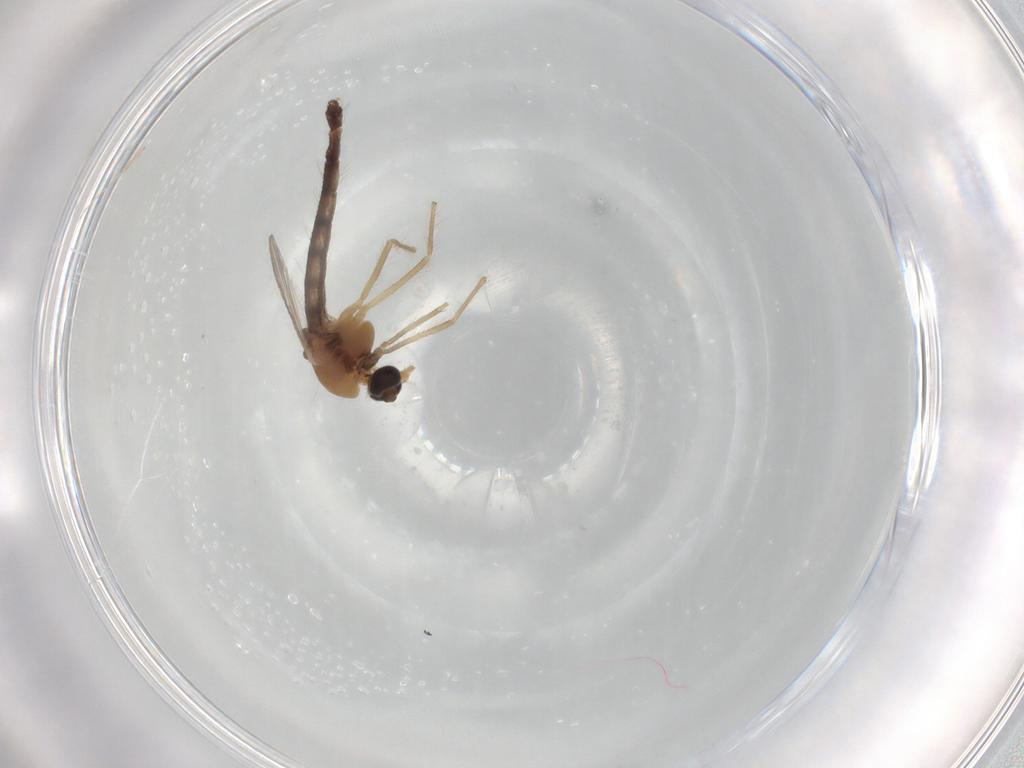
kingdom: Animalia
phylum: Arthropoda
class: Insecta
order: Diptera
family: Chironomidae
